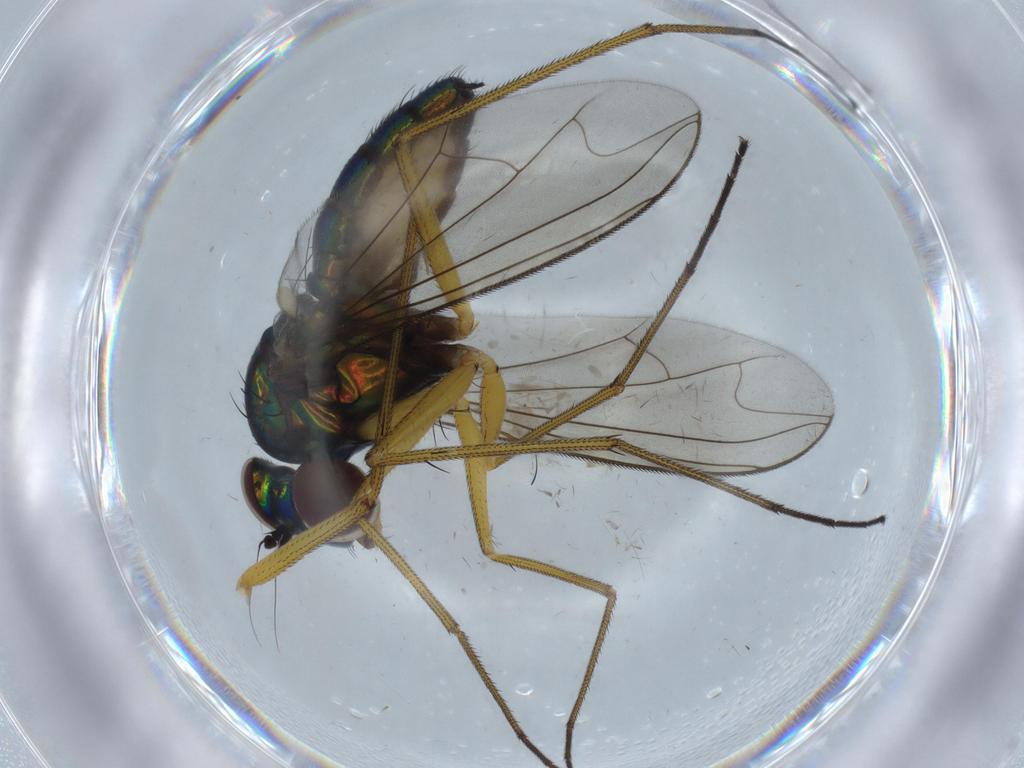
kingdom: Animalia
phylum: Arthropoda
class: Insecta
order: Diptera
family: Dolichopodidae
